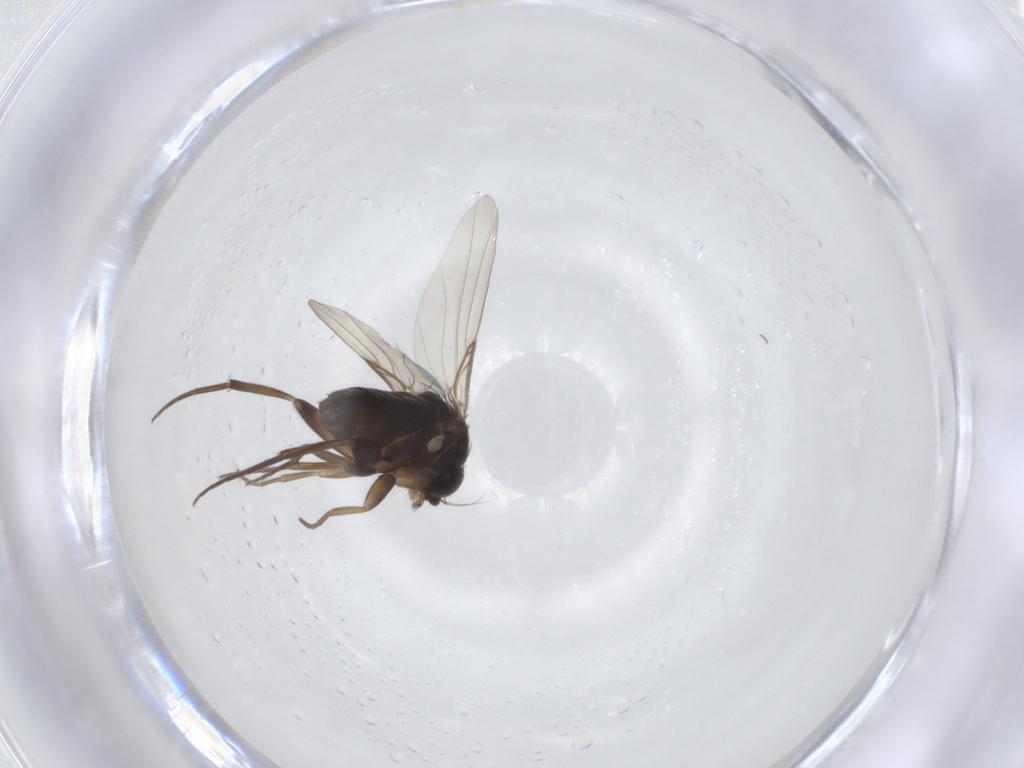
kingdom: Animalia
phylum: Arthropoda
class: Insecta
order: Diptera
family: Phoridae
